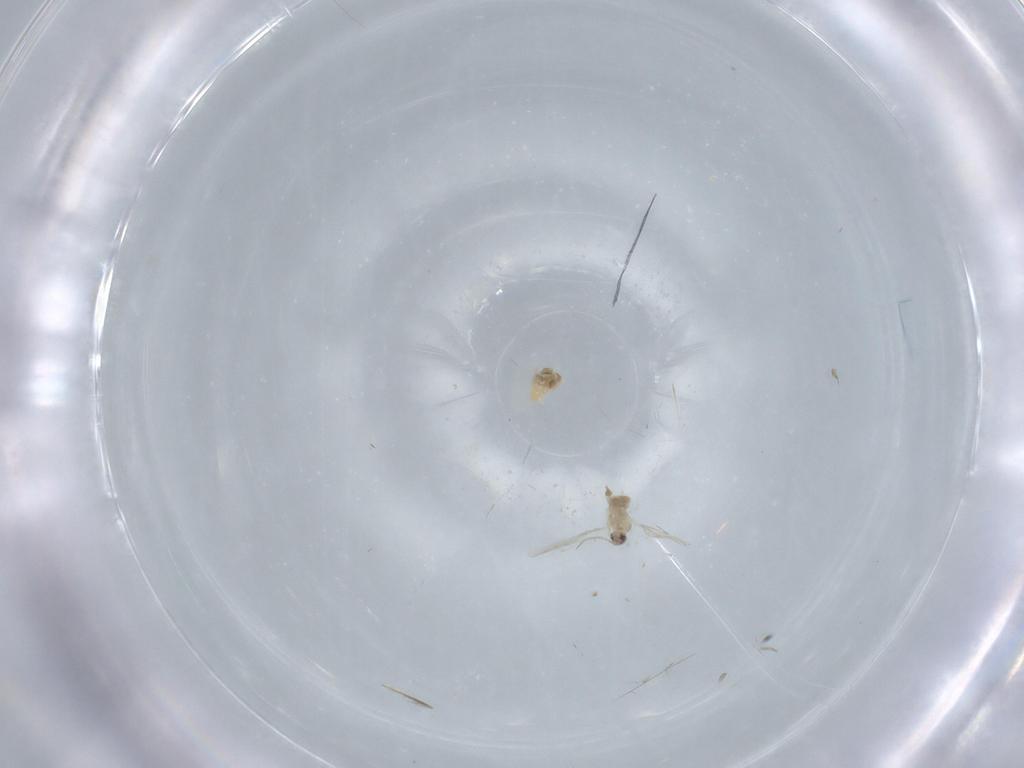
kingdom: Animalia
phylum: Arthropoda
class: Insecta
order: Diptera
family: Cecidomyiidae
